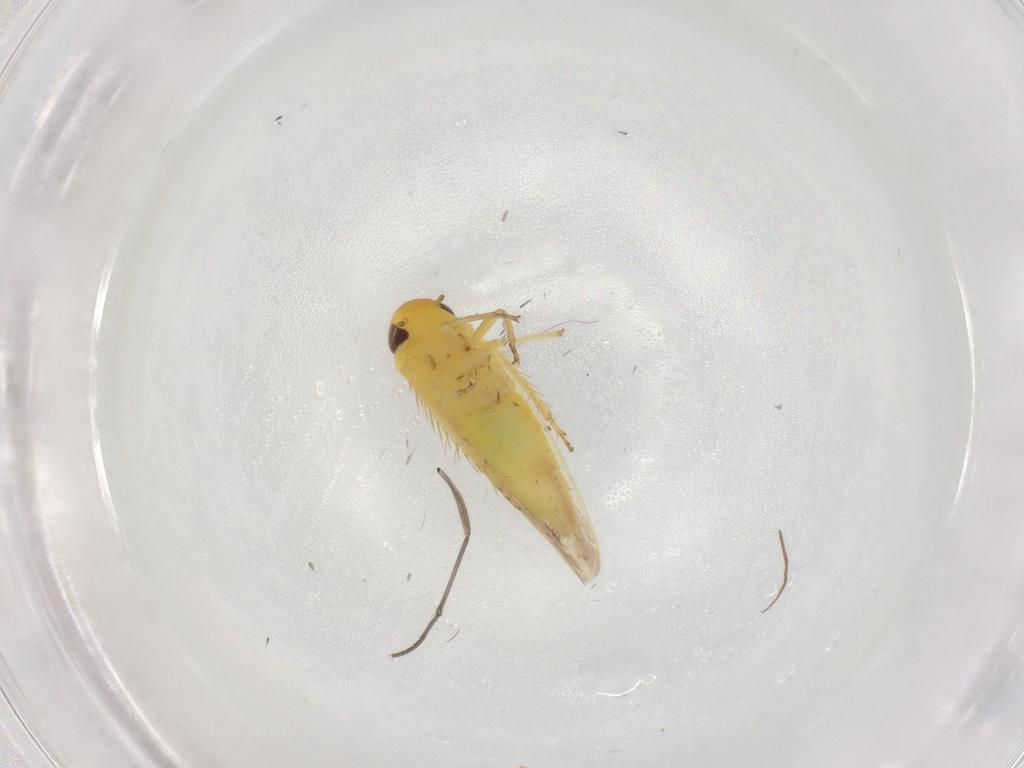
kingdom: Animalia
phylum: Arthropoda
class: Insecta
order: Hemiptera
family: Cicadellidae
